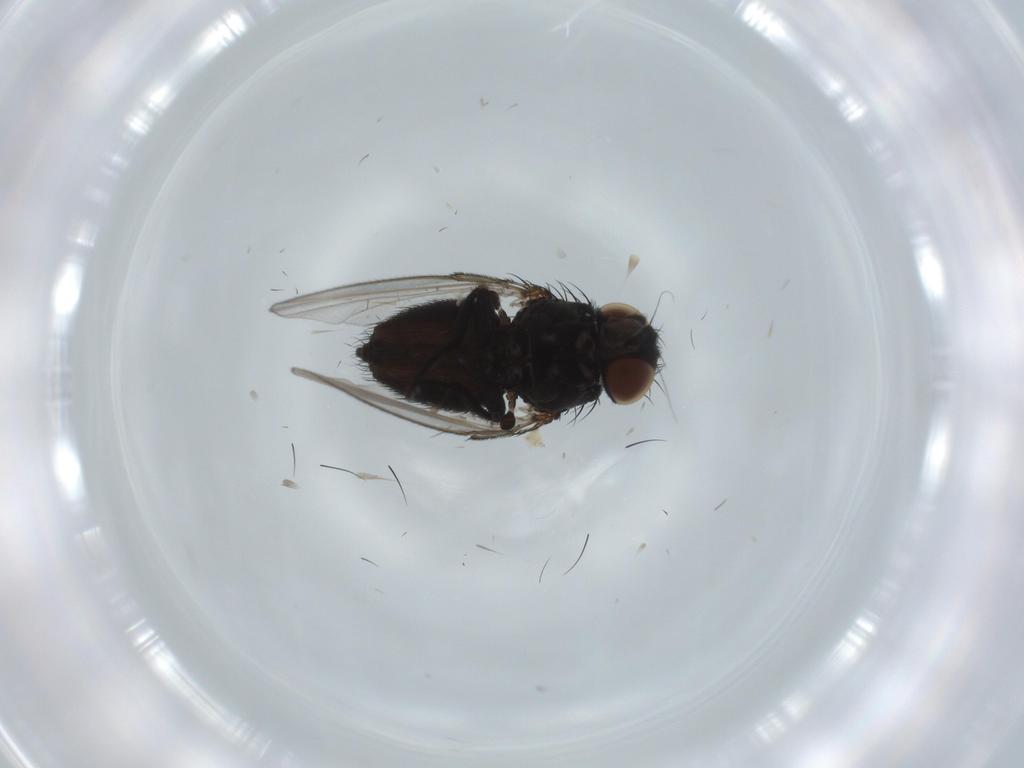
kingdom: Animalia
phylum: Arthropoda
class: Insecta
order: Diptera
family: Milichiidae
